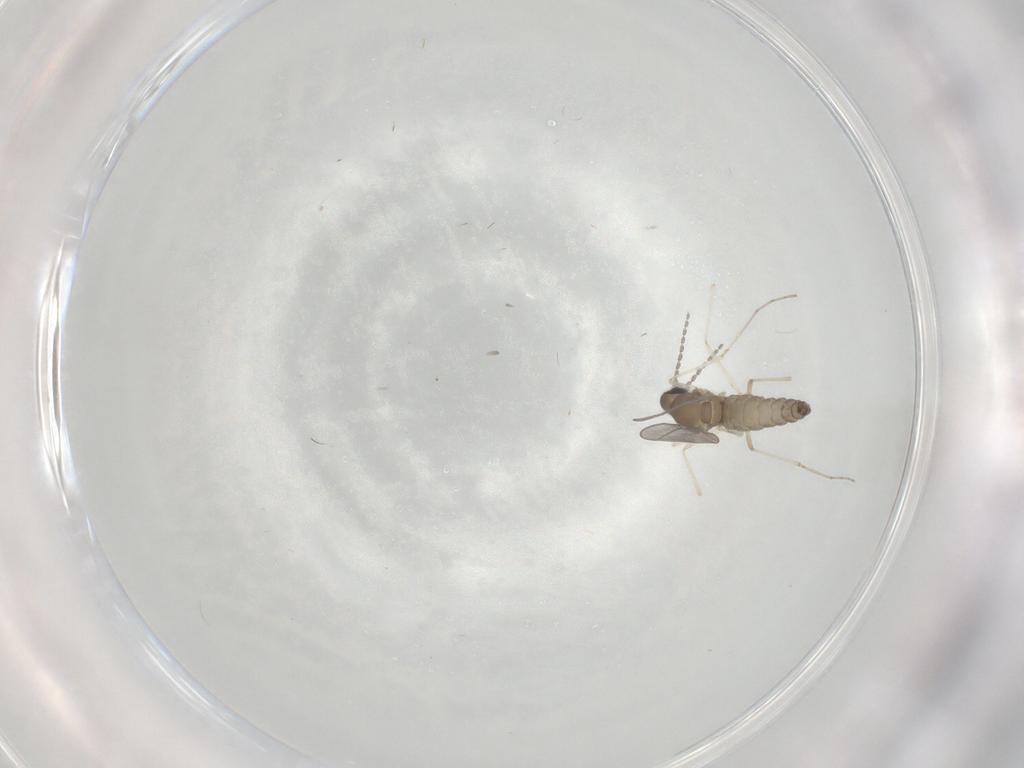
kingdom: Animalia
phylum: Arthropoda
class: Insecta
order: Diptera
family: Cecidomyiidae
